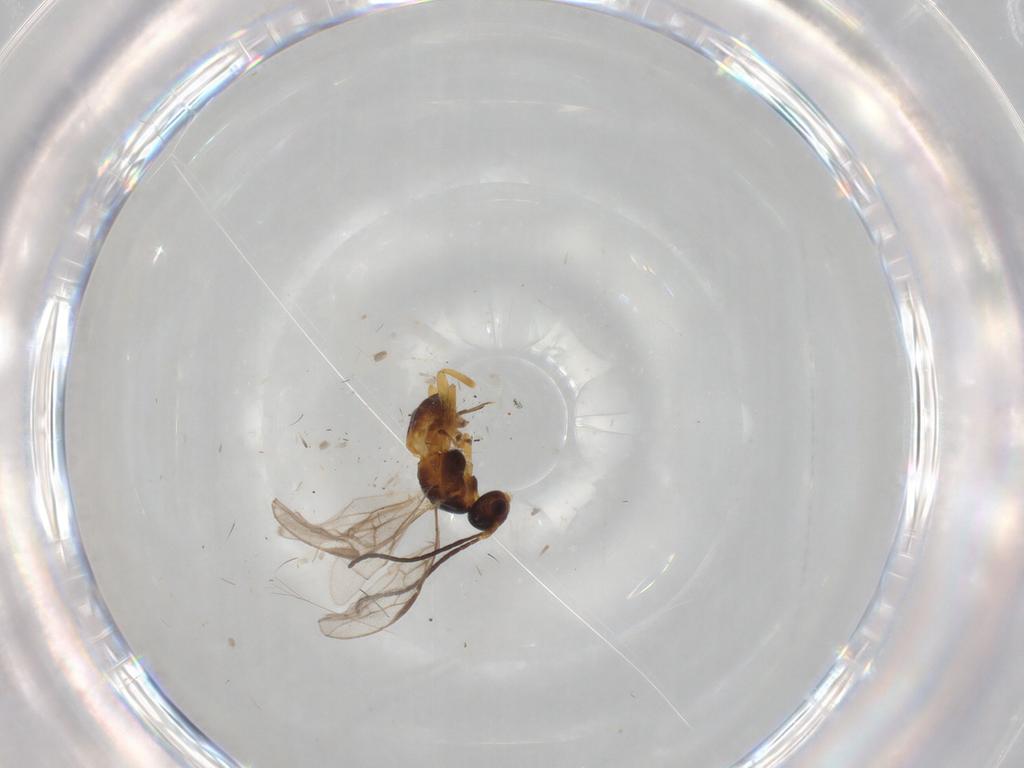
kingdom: Animalia
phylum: Arthropoda
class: Insecta
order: Hymenoptera
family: Braconidae
